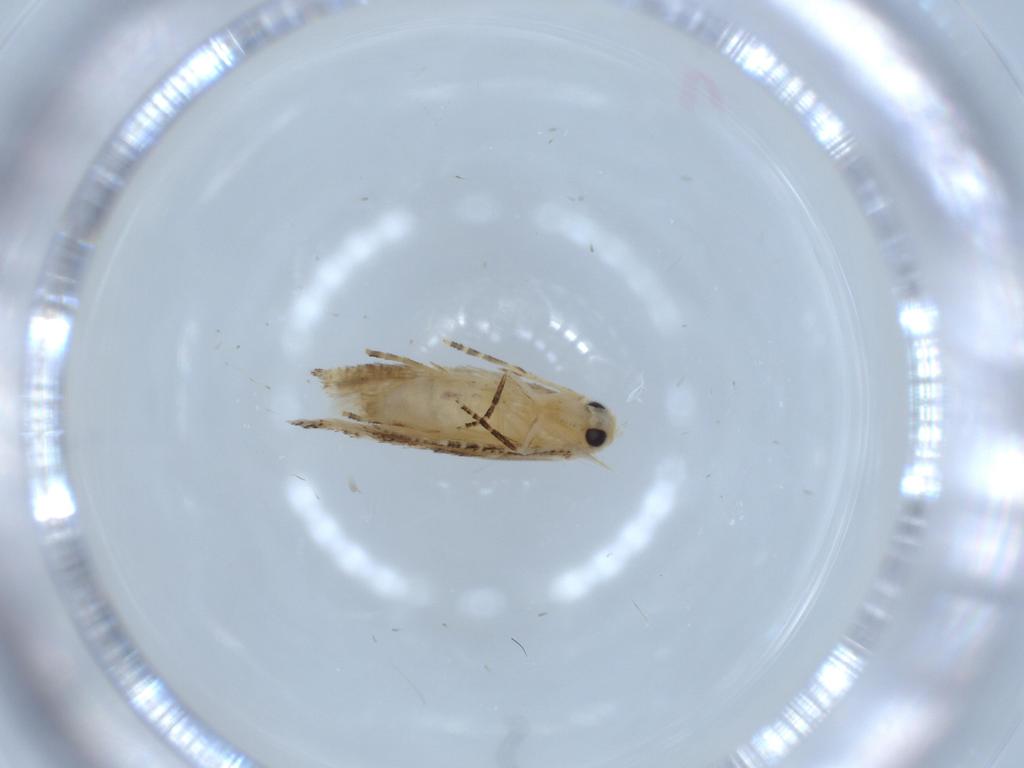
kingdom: Animalia
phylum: Arthropoda
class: Insecta
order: Lepidoptera
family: Bucculatricidae
